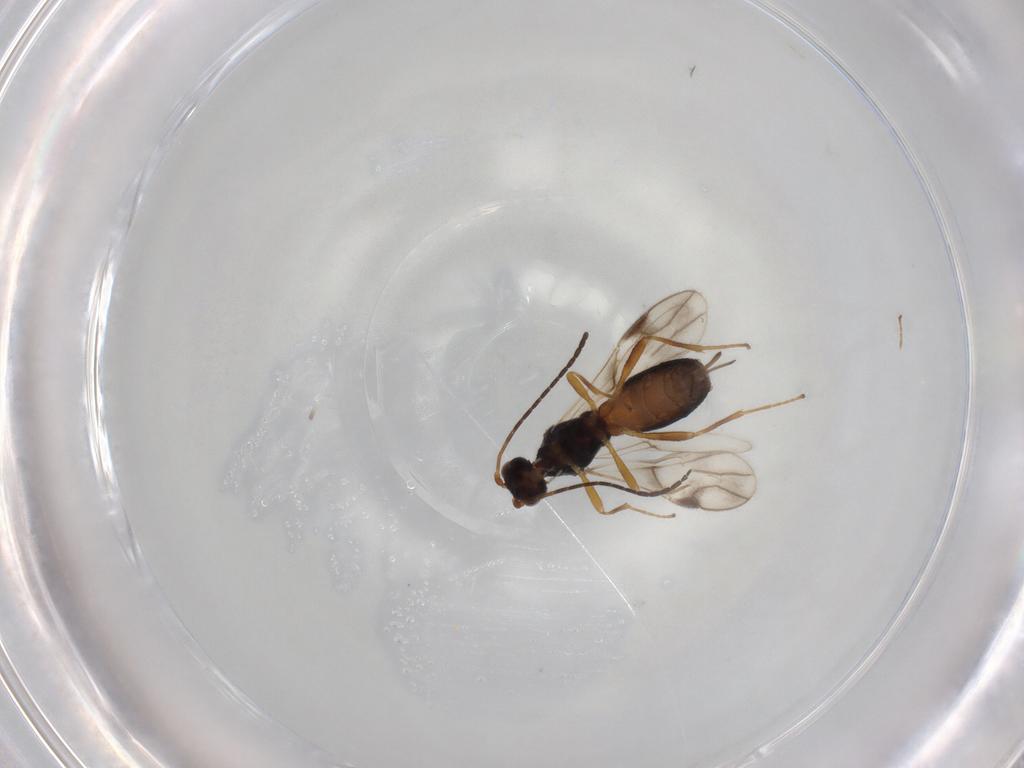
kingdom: Animalia
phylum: Arthropoda
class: Insecta
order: Hymenoptera
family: Braconidae
